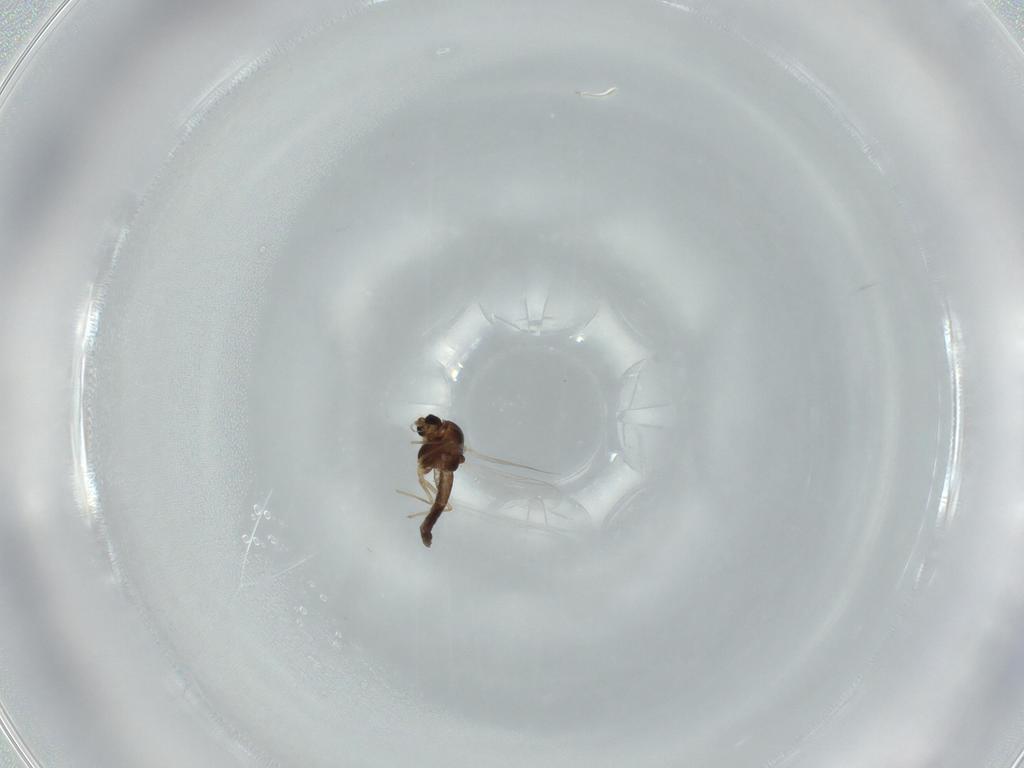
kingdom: Animalia
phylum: Arthropoda
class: Insecta
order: Diptera
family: Chironomidae
